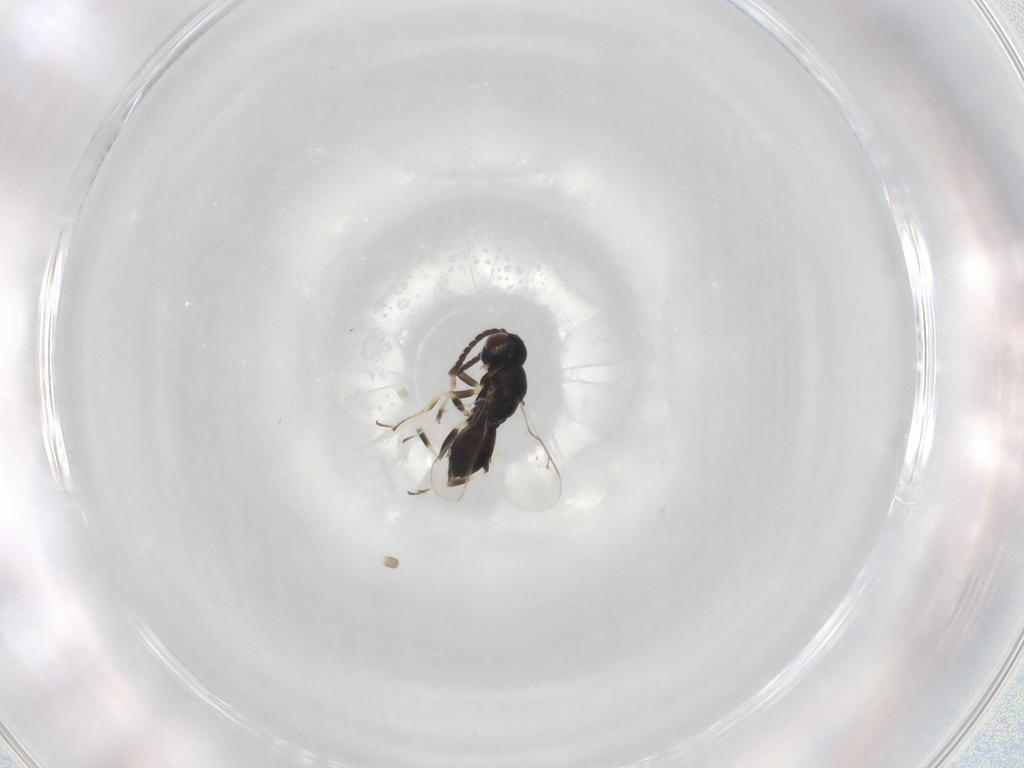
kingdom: Animalia
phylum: Arthropoda
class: Insecta
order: Hymenoptera
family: Eupelmidae
